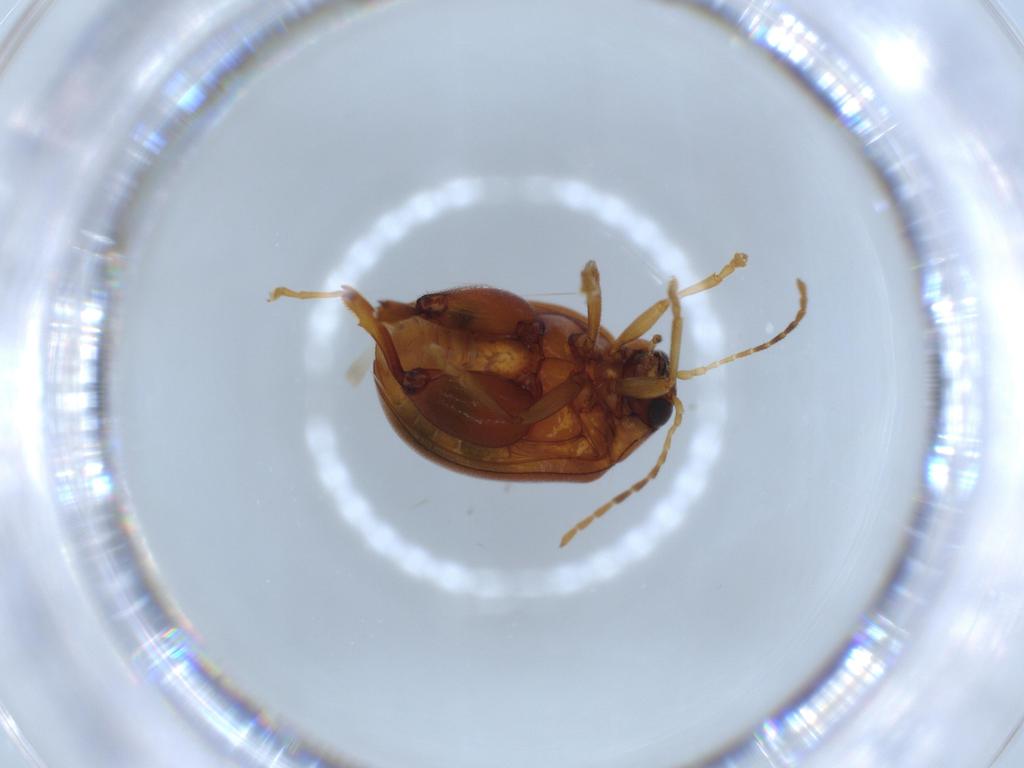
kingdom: Animalia
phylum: Arthropoda
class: Insecta
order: Coleoptera
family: Chrysomelidae
